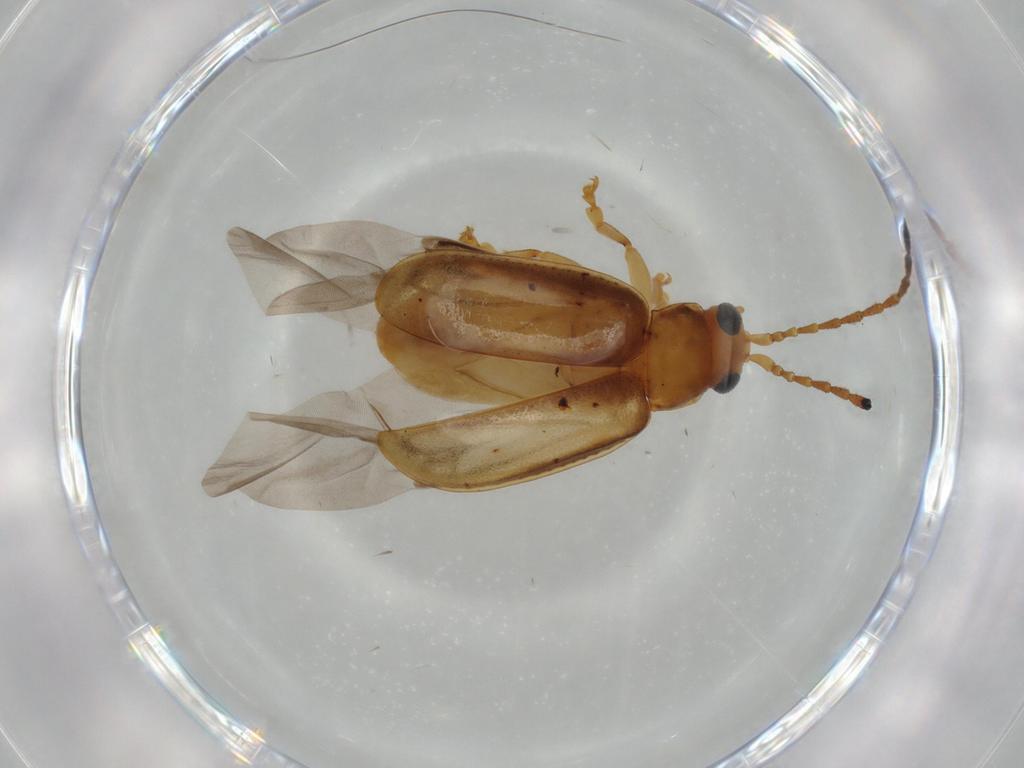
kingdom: Animalia
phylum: Arthropoda
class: Insecta
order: Coleoptera
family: Chrysomelidae
